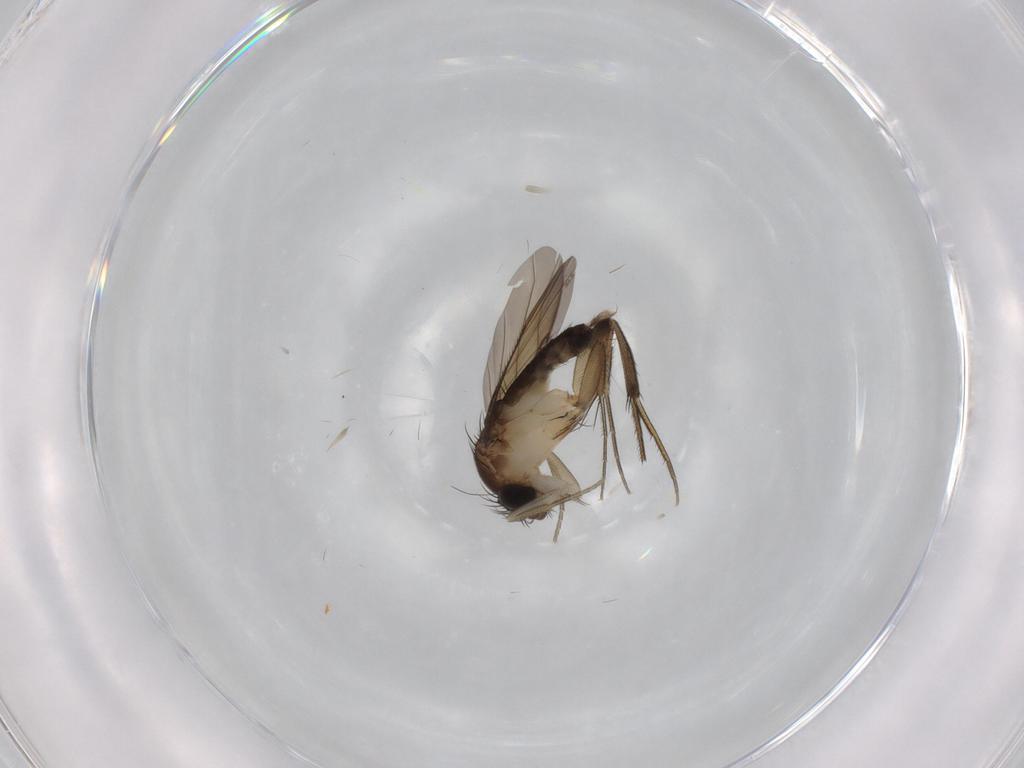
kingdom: Animalia
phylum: Arthropoda
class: Insecta
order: Diptera
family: Phoridae
